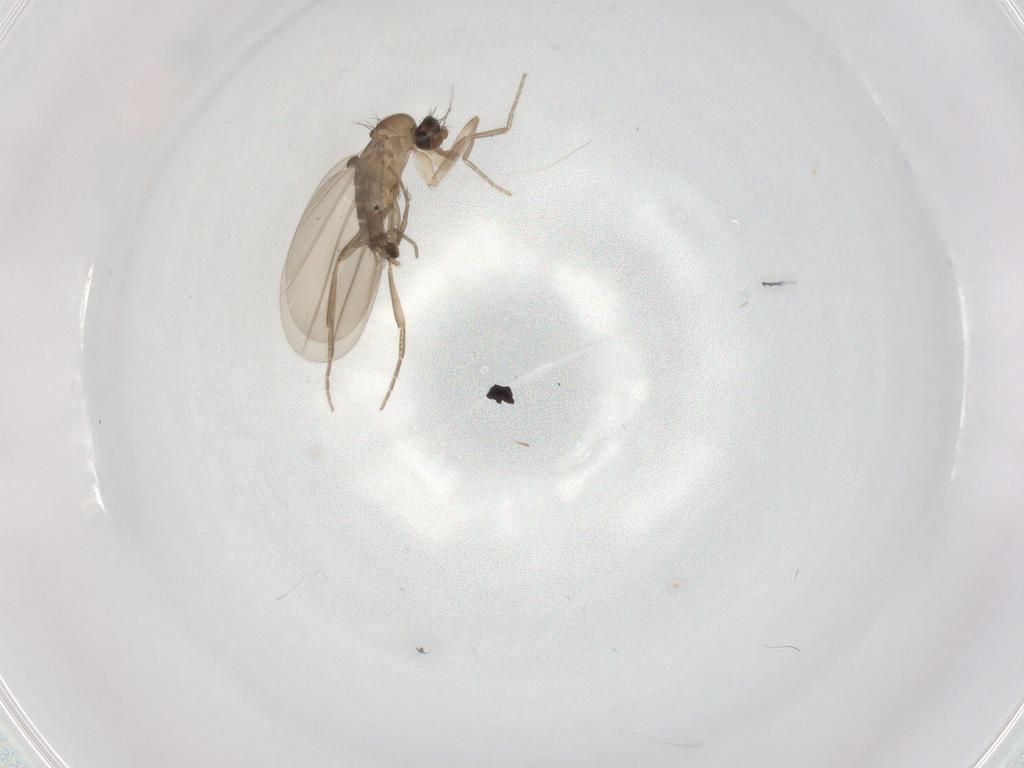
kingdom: Animalia
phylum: Arthropoda
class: Insecta
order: Diptera
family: Chironomidae
